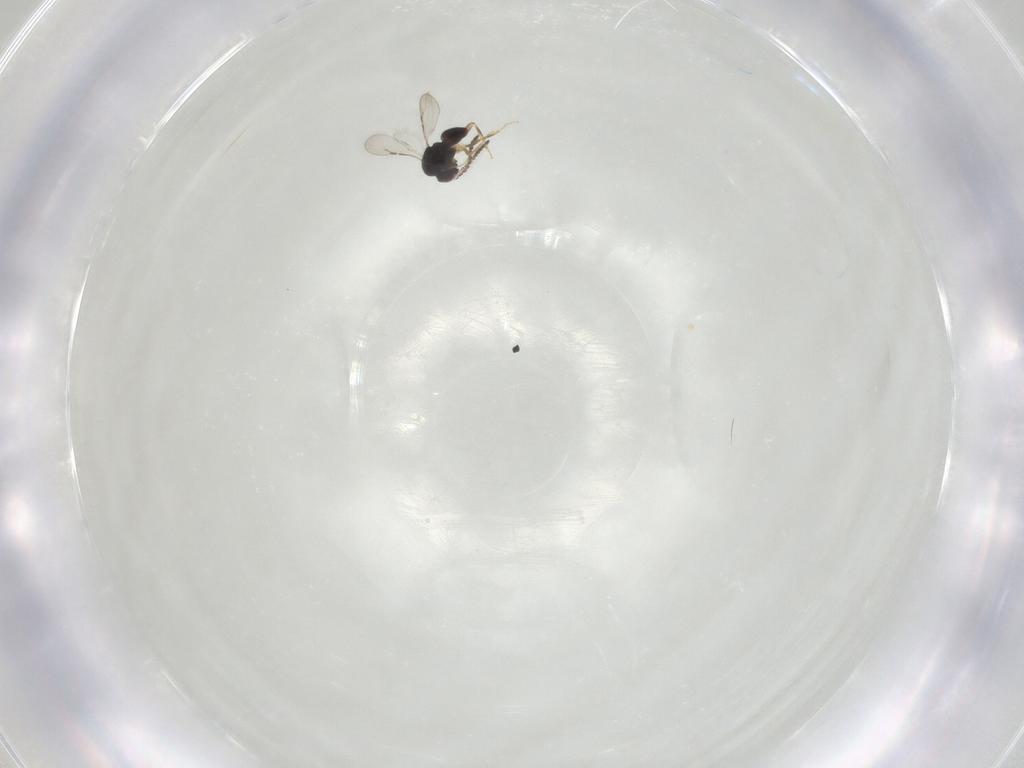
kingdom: Animalia
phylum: Arthropoda
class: Insecta
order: Hymenoptera
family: Ceraphronidae
